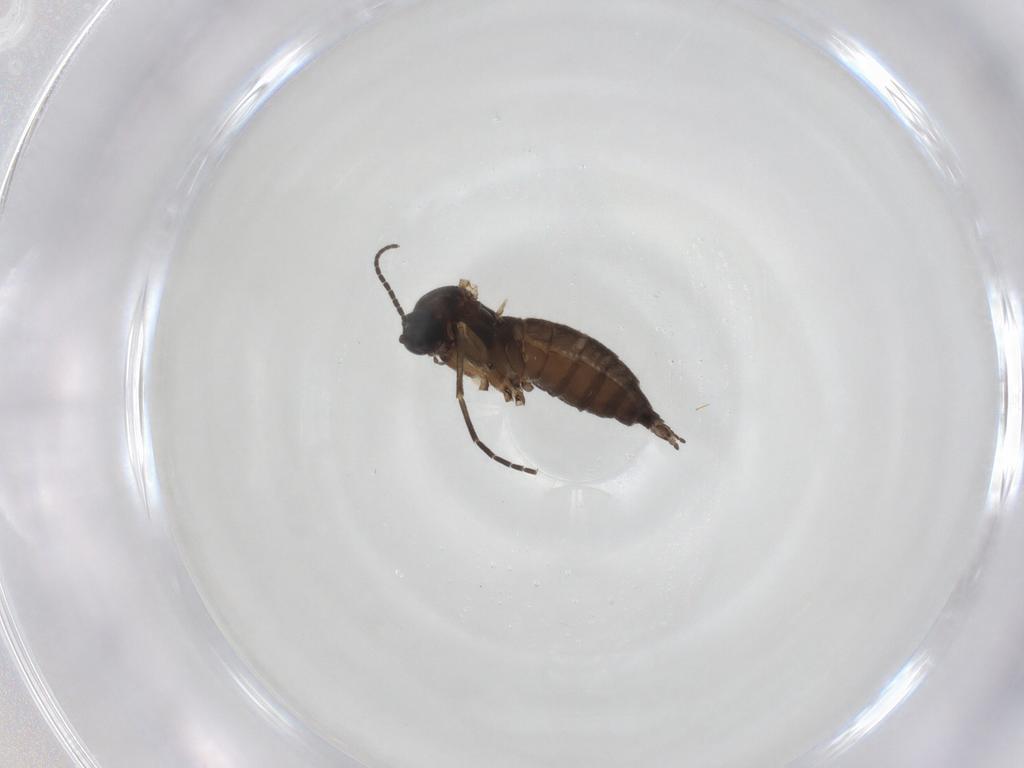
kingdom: Animalia
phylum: Arthropoda
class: Insecta
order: Diptera
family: Sciaridae
